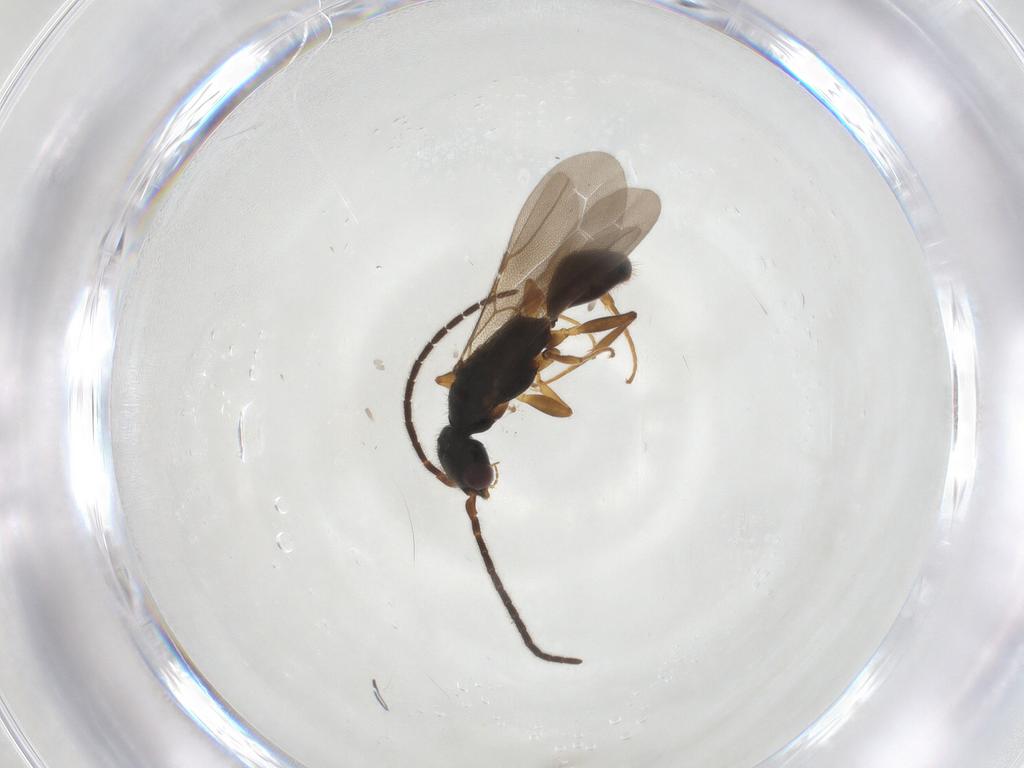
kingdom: Animalia
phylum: Arthropoda
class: Insecta
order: Hymenoptera
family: Bethylidae
